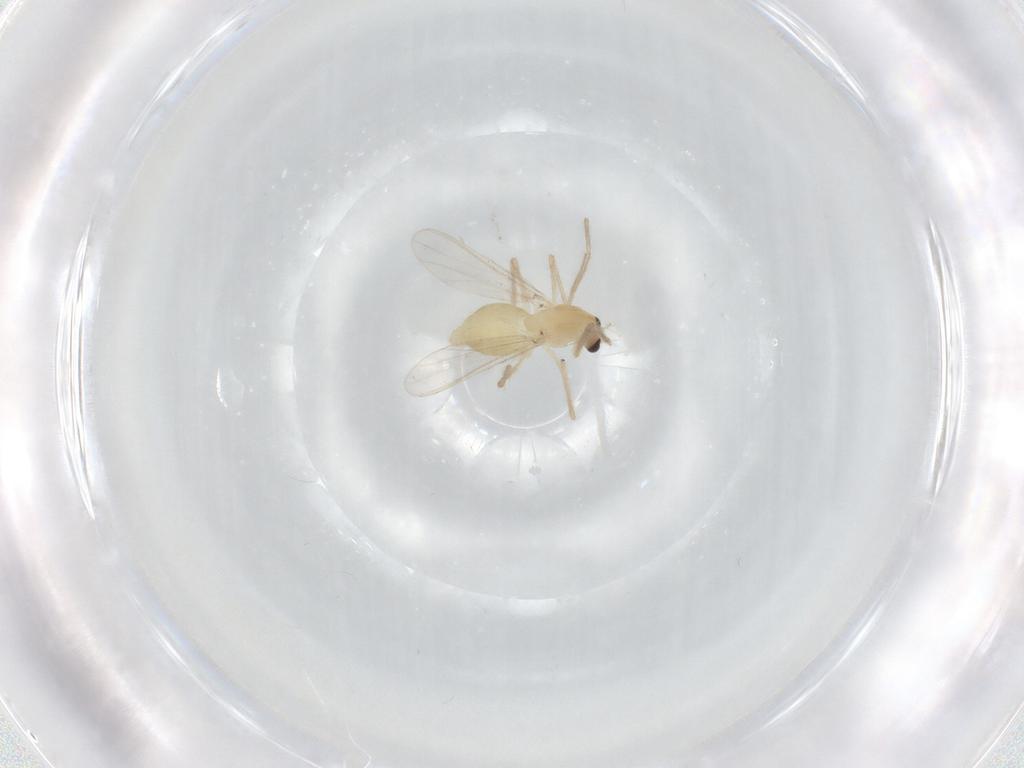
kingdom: Animalia
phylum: Arthropoda
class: Insecta
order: Diptera
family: Chironomidae
